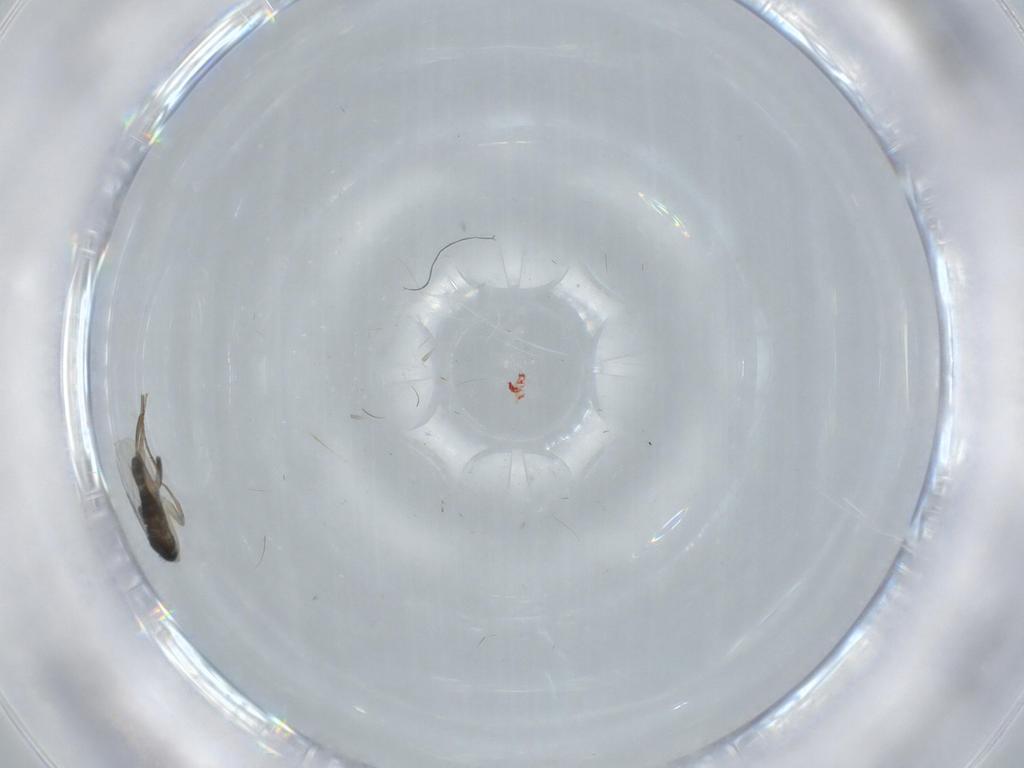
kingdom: Animalia
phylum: Arthropoda
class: Insecta
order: Diptera
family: Phoridae
